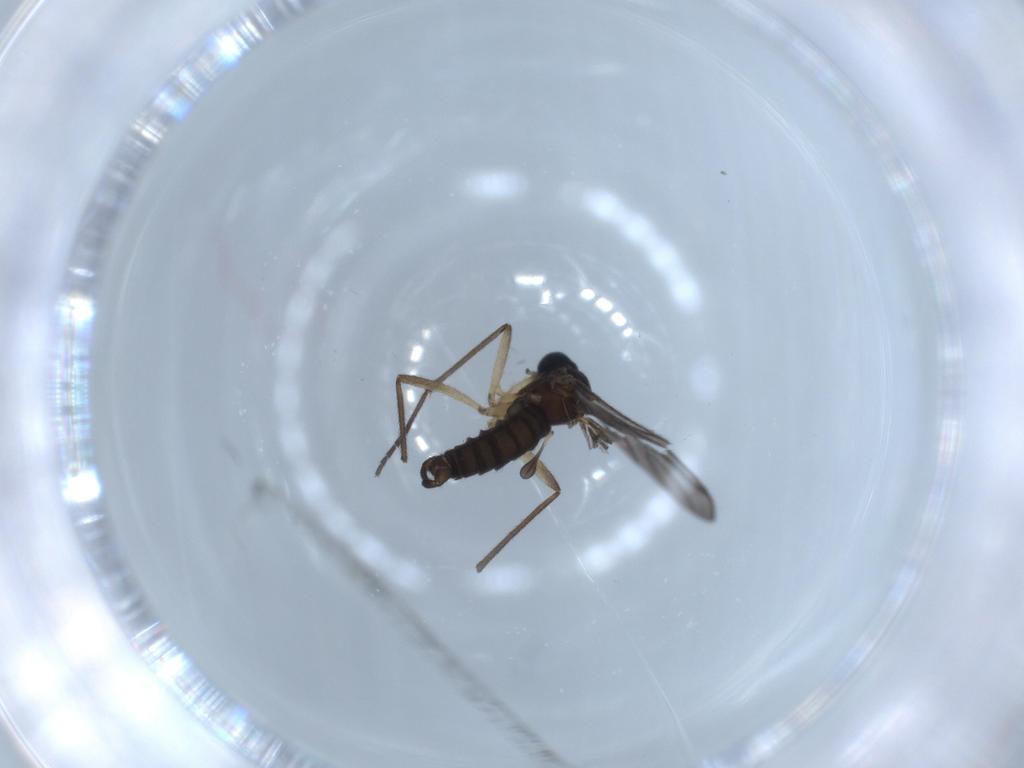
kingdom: Animalia
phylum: Arthropoda
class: Insecta
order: Diptera
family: Sciaridae
